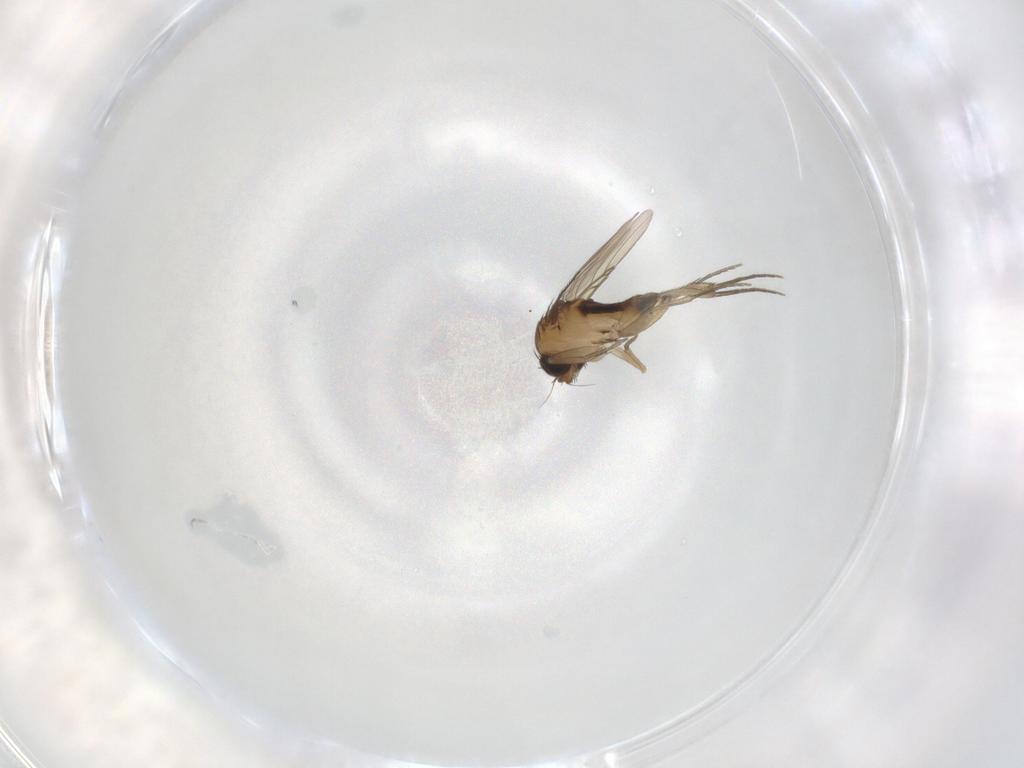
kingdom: Animalia
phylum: Arthropoda
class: Insecta
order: Diptera
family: Phoridae
